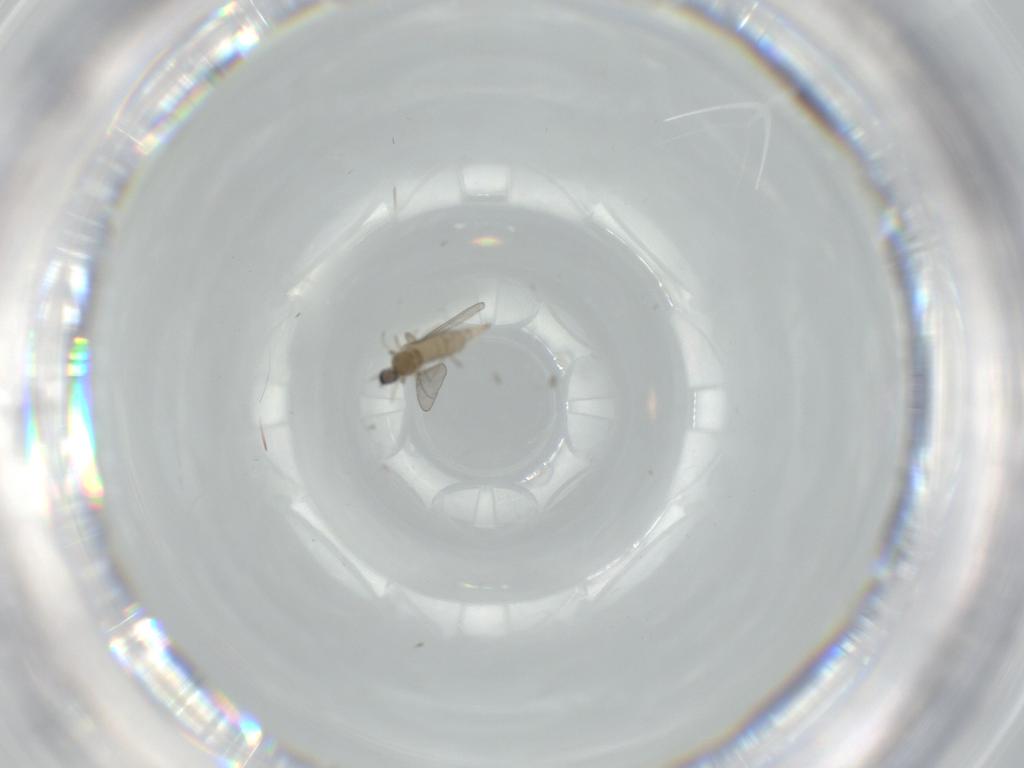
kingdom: Animalia
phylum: Arthropoda
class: Insecta
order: Diptera
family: Cecidomyiidae
